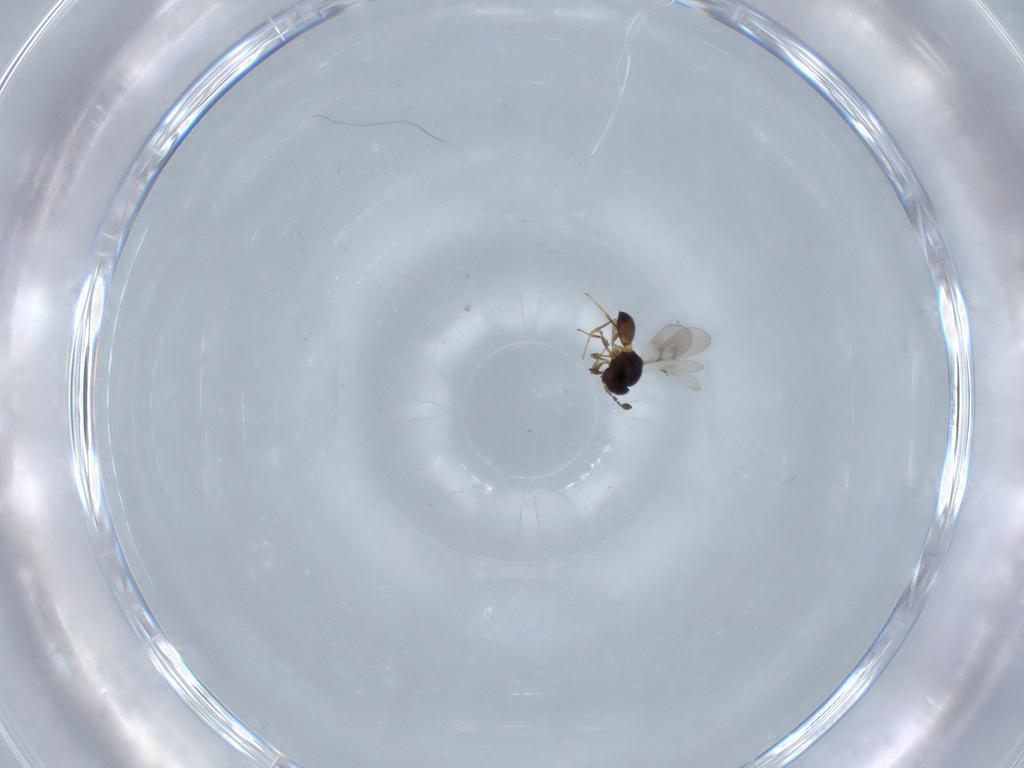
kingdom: Animalia
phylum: Arthropoda
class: Insecta
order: Hymenoptera
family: Scelionidae
